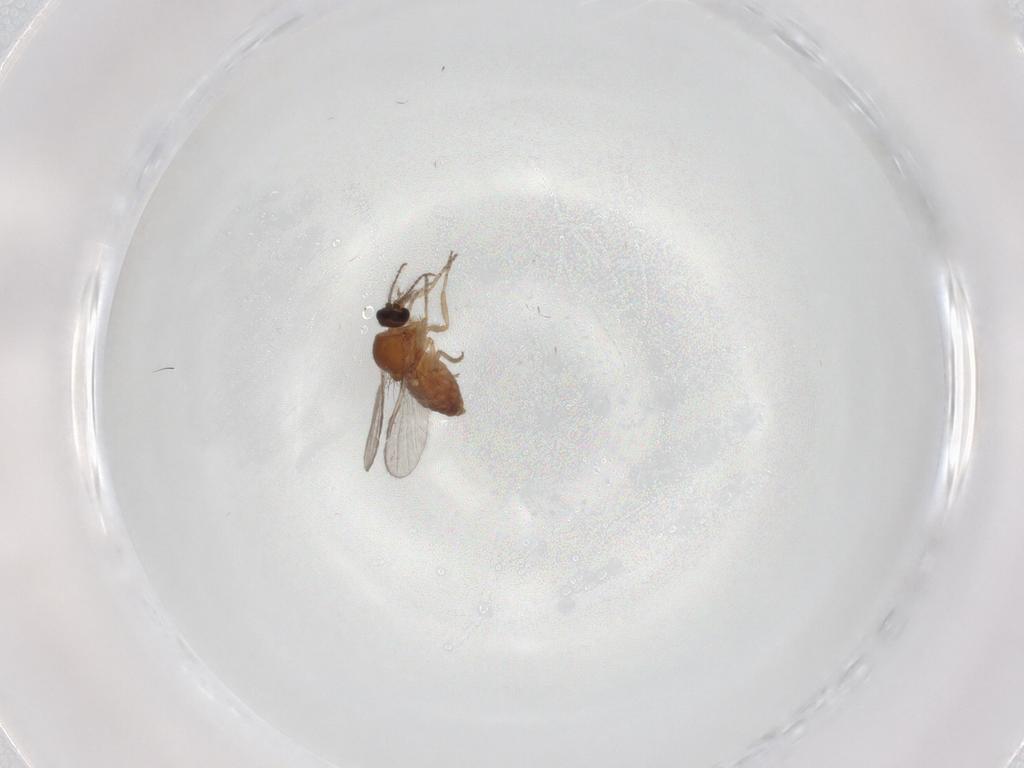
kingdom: Animalia
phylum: Arthropoda
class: Insecta
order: Diptera
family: Ceratopogonidae
